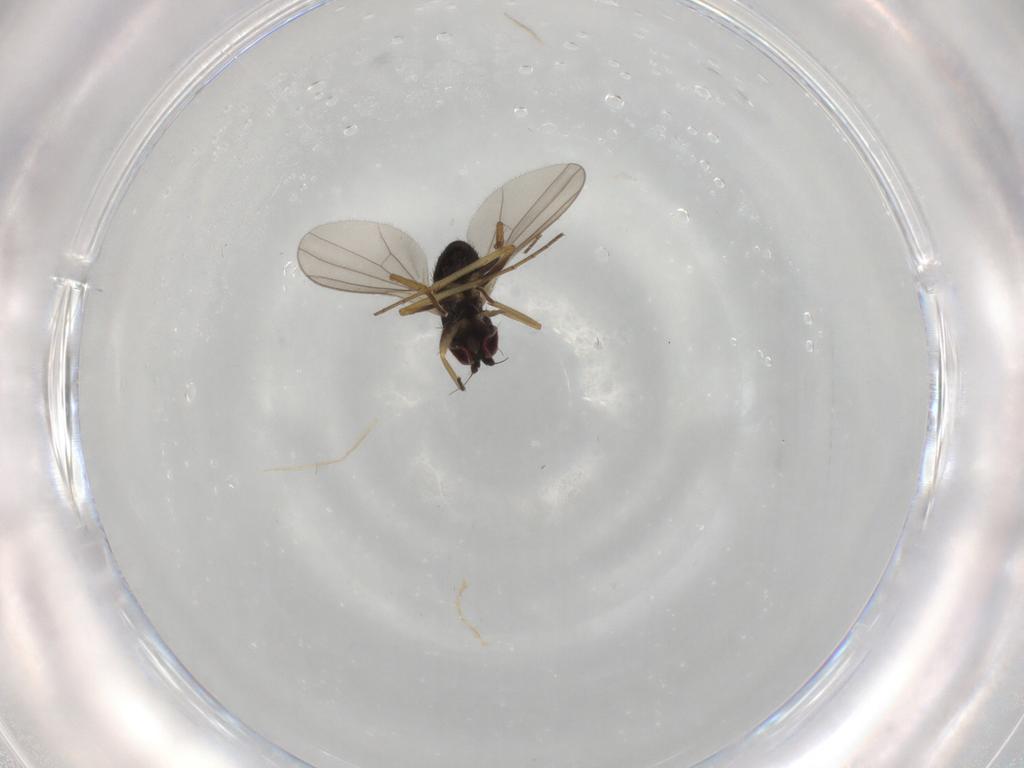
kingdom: Animalia
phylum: Arthropoda
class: Insecta
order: Diptera
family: Dolichopodidae
